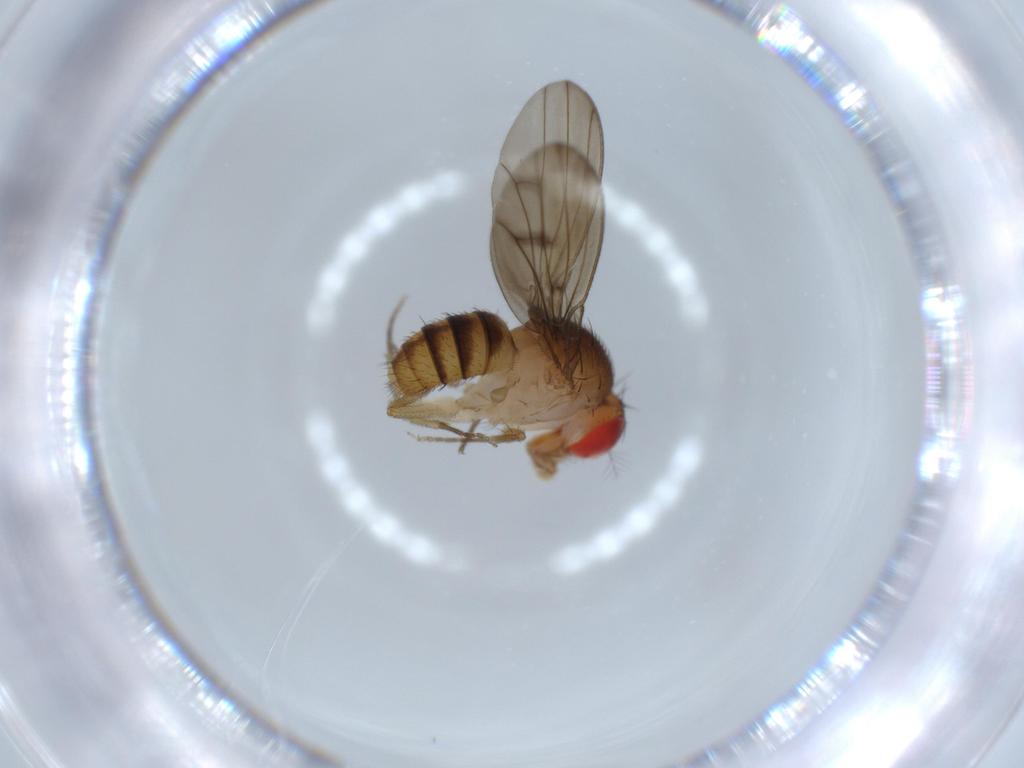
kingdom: Animalia
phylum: Arthropoda
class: Insecta
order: Diptera
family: Drosophilidae
